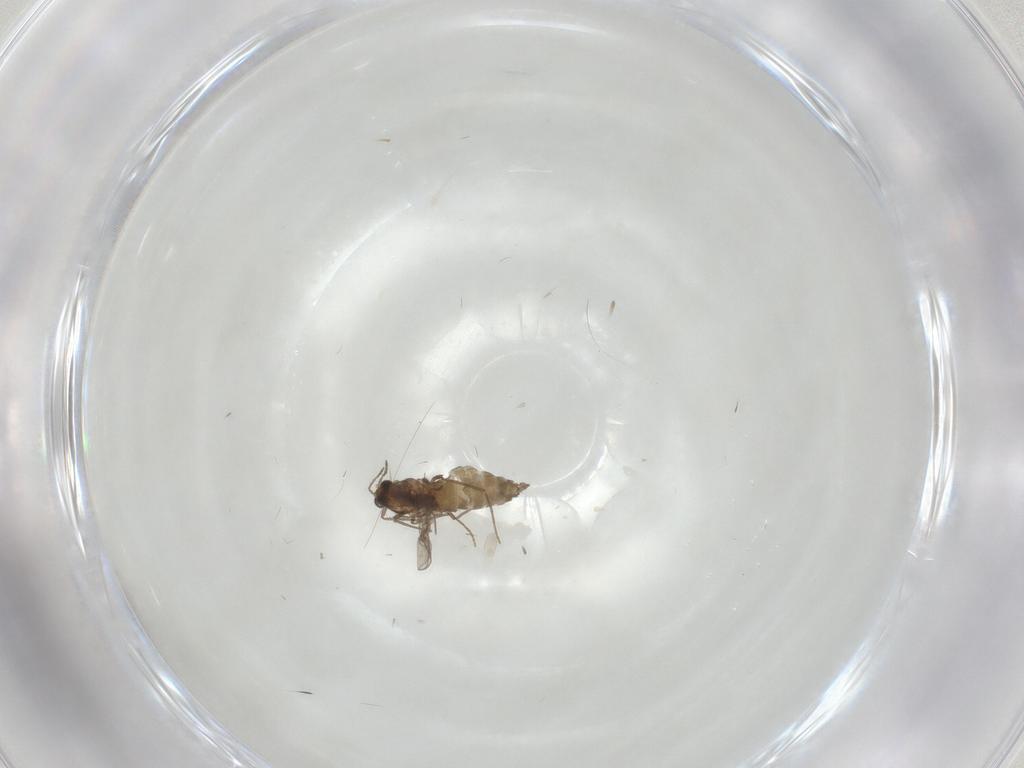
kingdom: Animalia
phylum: Arthropoda
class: Insecta
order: Diptera
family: Chironomidae
